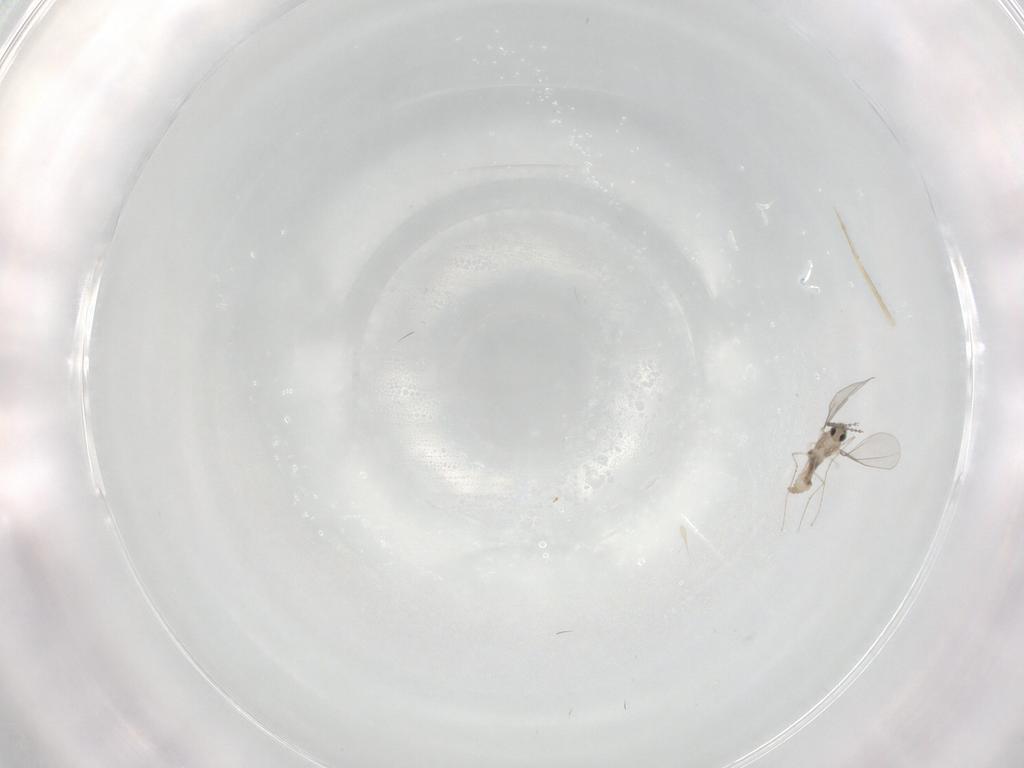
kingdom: Animalia
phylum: Arthropoda
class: Insecta
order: Diptera
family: Cecidomyiidae
